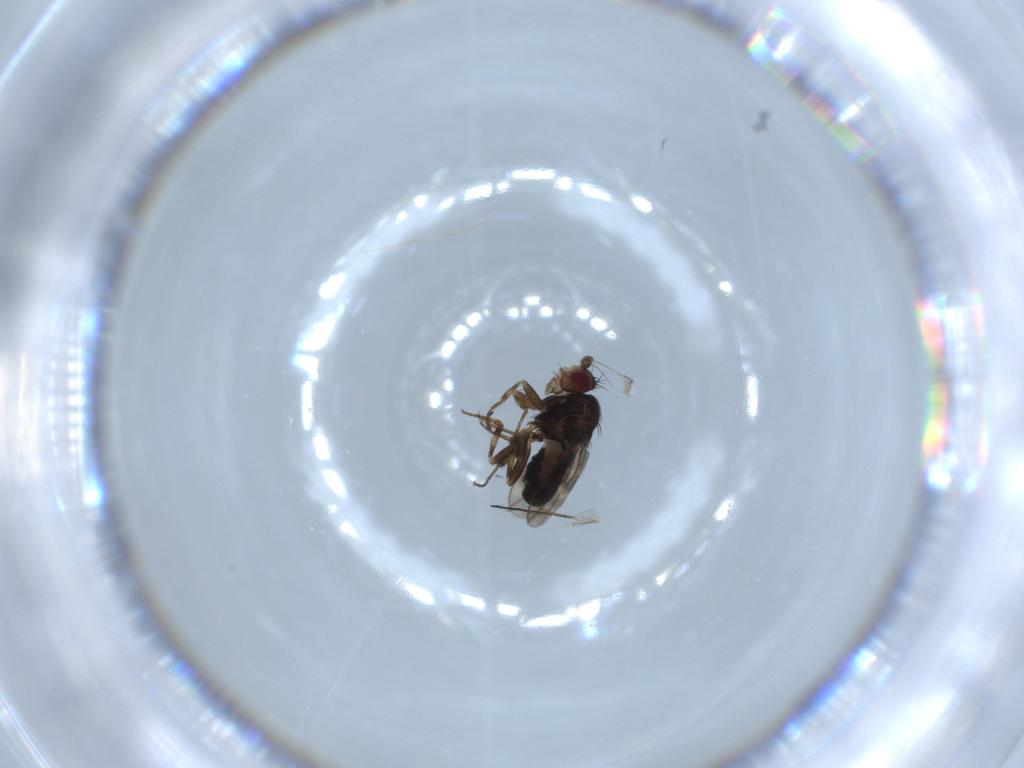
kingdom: Animalia
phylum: Arthropoda
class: Insecta
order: Diptera
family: Sphaeroceridae
